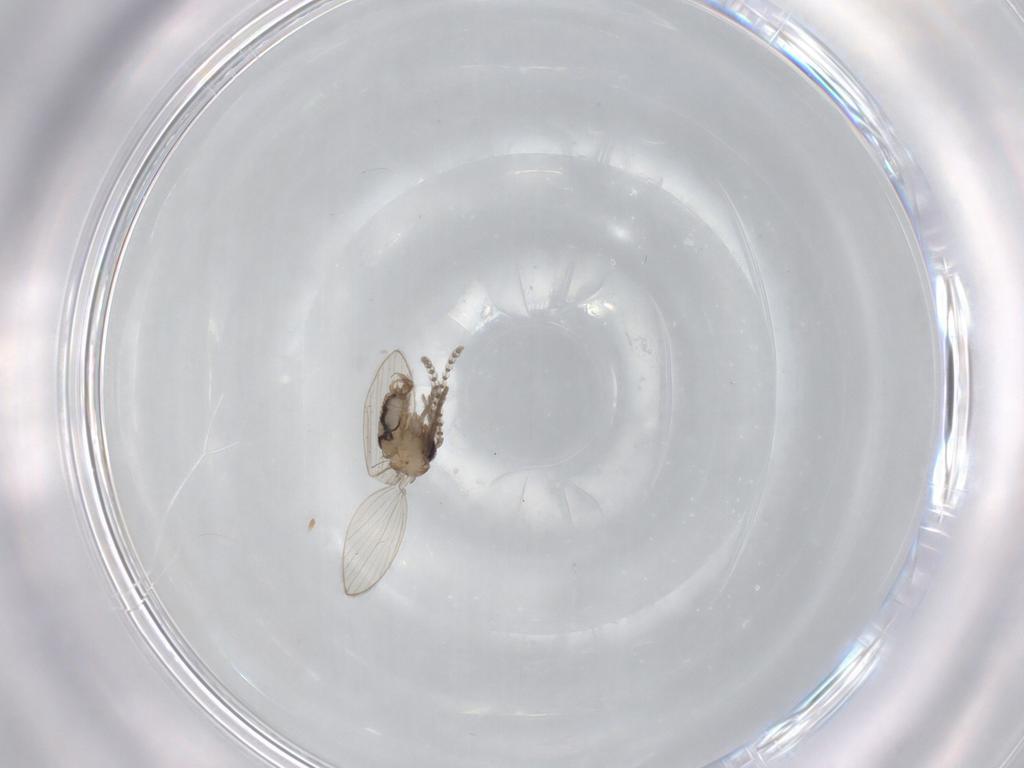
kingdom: Animalia
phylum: Arthropoda
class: Insecta
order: Diptera
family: Psychodidae
